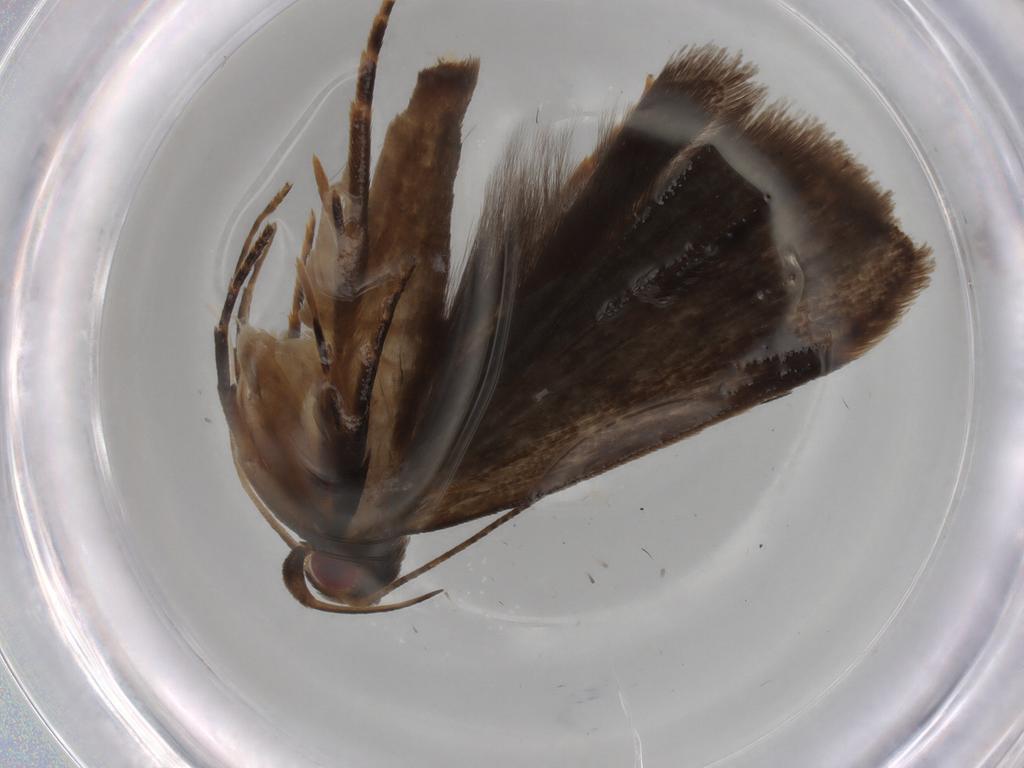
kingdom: Animalia
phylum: Arthropoda
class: Insecta
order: Lepidoptera
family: Gelechiidae
